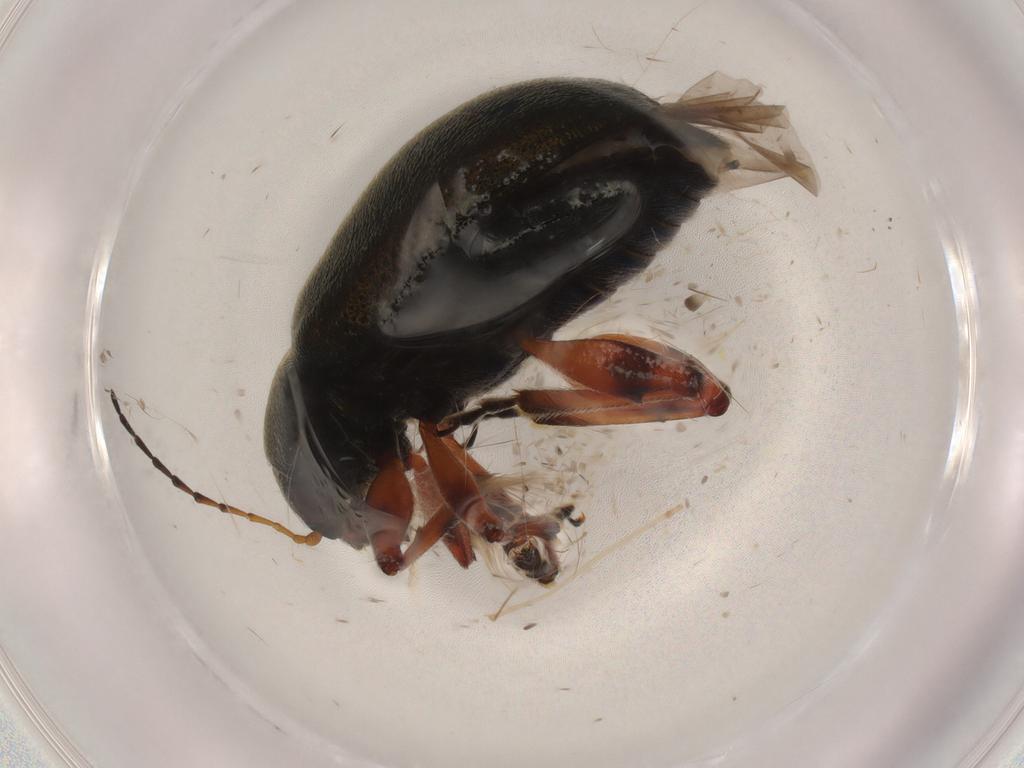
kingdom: Animalia
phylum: Arthropoda
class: Insecta
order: Coleoptera
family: Chrysomelidae
